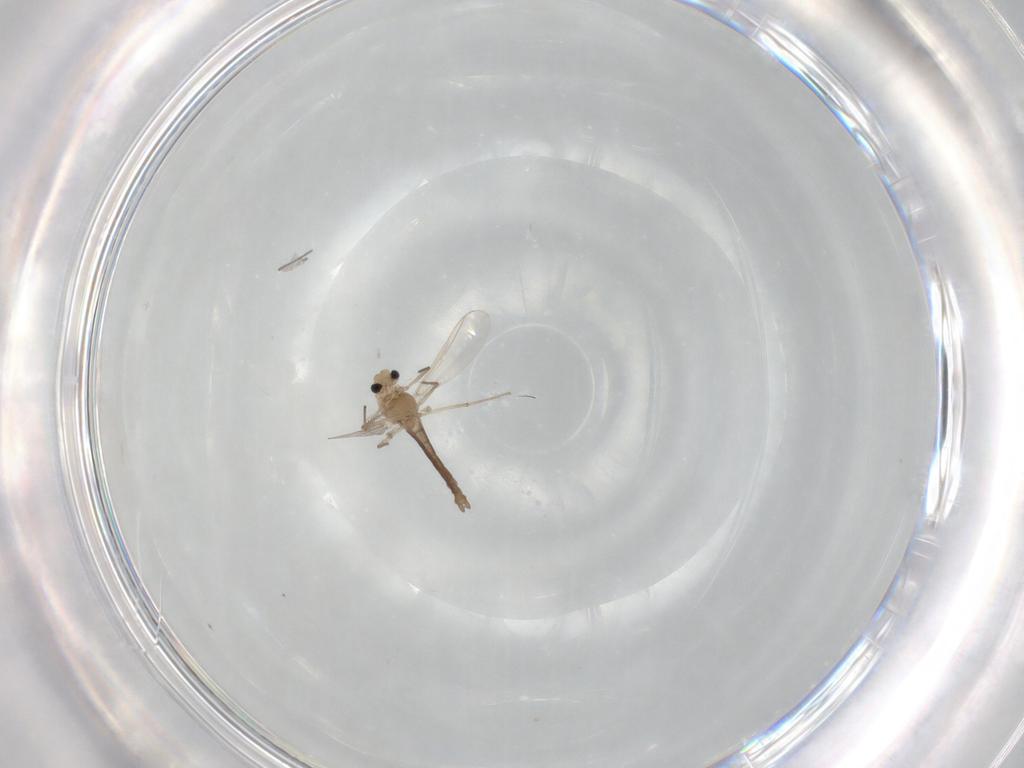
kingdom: Animalia
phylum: Arthropoda
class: Insecta
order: Diptera
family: Chironomidae
